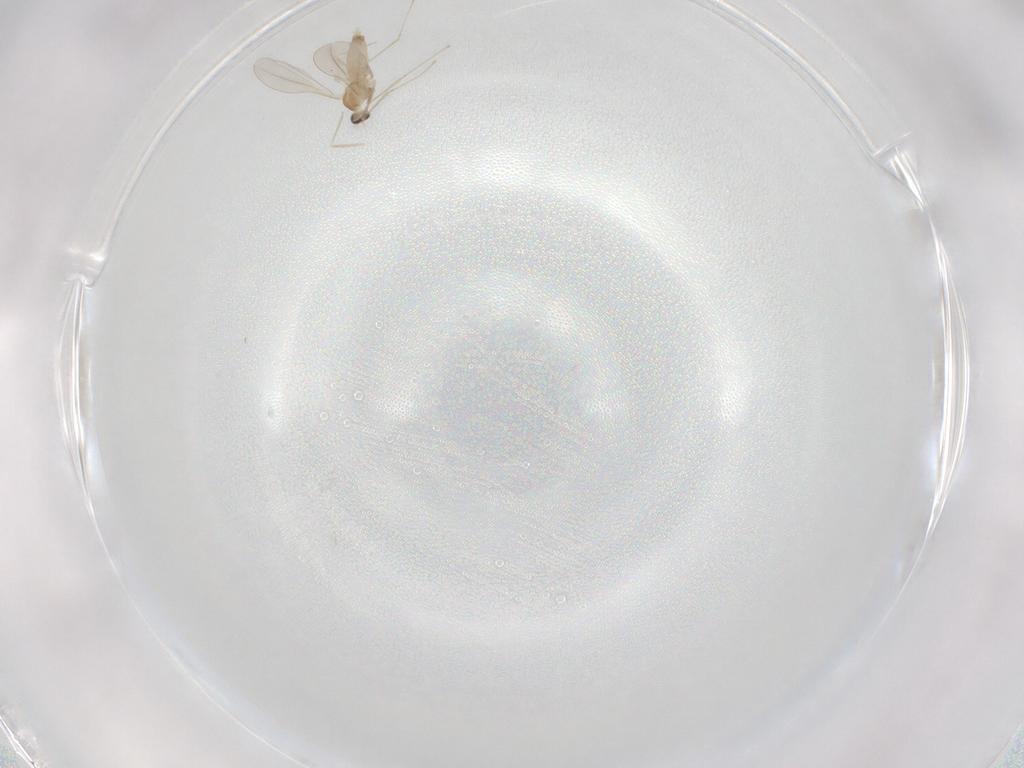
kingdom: Animalia
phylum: Arthropoda
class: Insecta
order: Diptera
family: Cecidomyiidae
